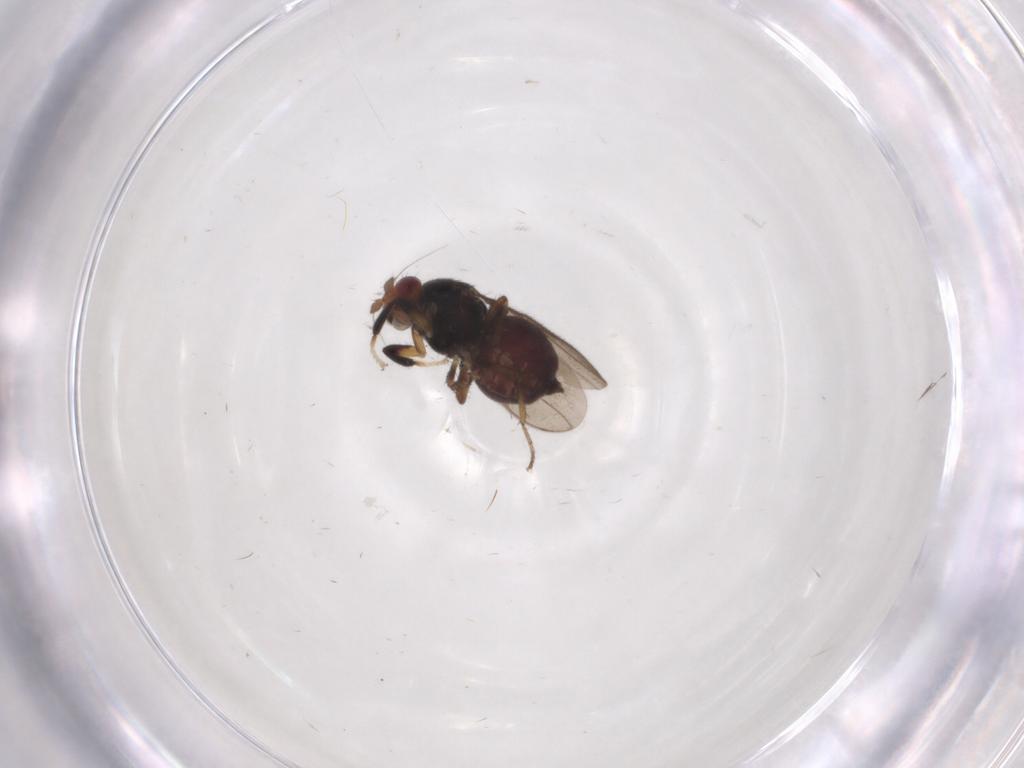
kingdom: Animalia
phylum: Arthropoda
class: Insecta
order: Diptera
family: Sphaeroceridae
